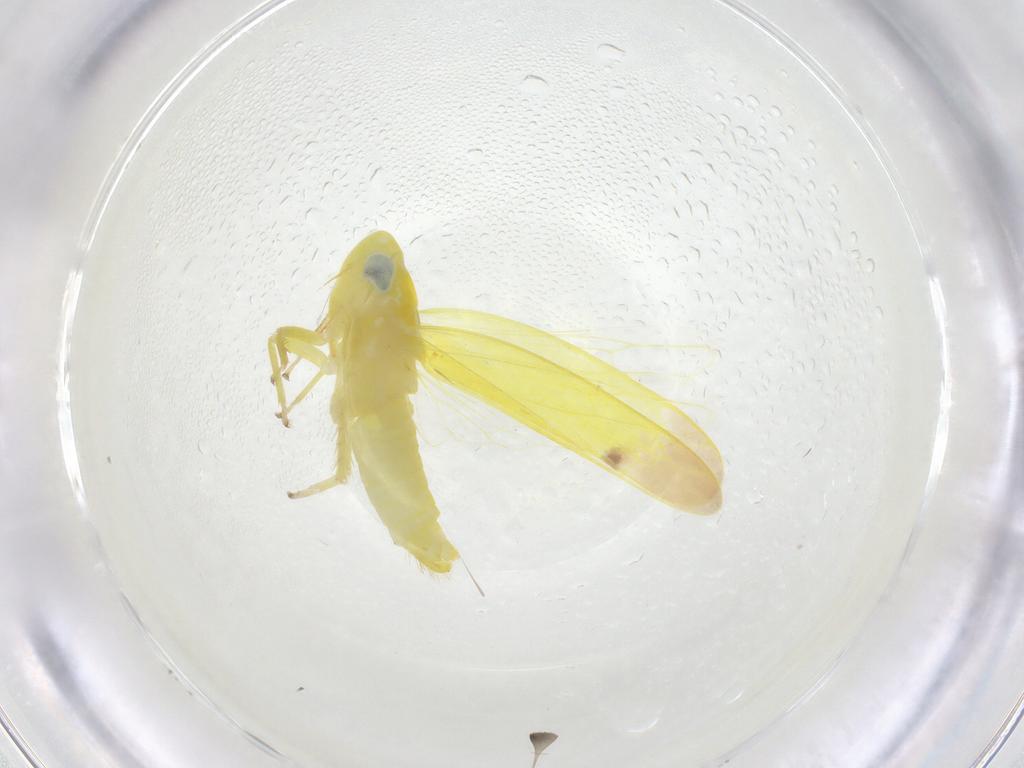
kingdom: Animalia
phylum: Arthropoda
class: Insecta
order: Hemiptera
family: Cicadellidae
